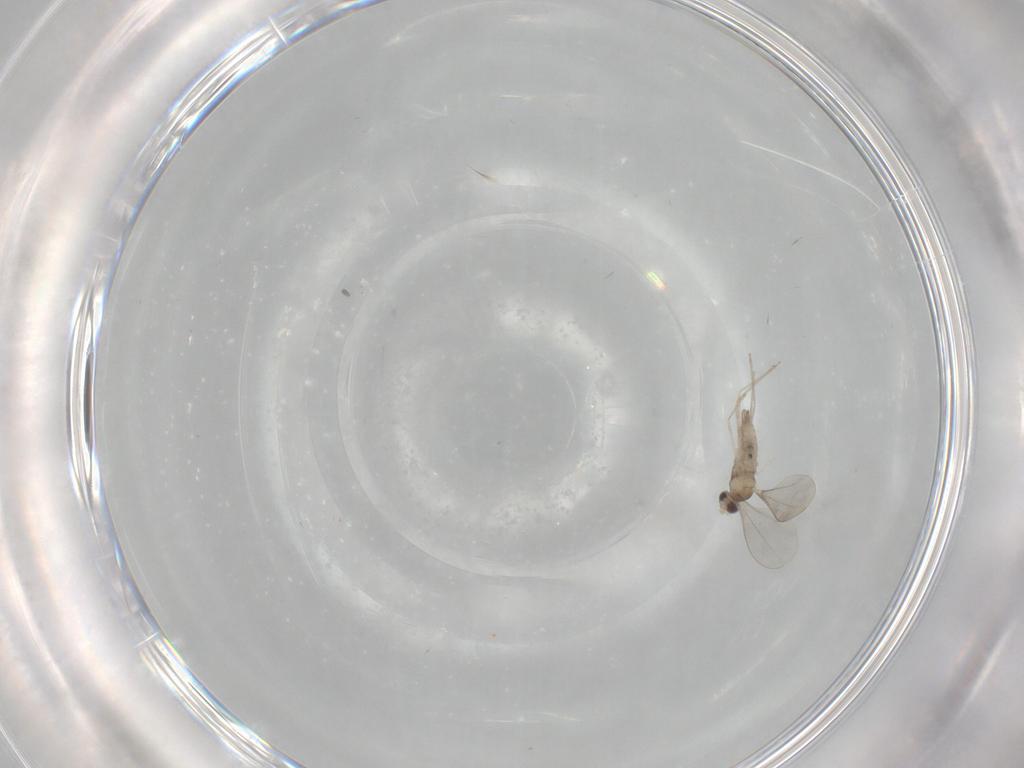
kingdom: Animalia
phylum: Arthropoda
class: Insecta
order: Diptera
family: Cecidomyiidae
